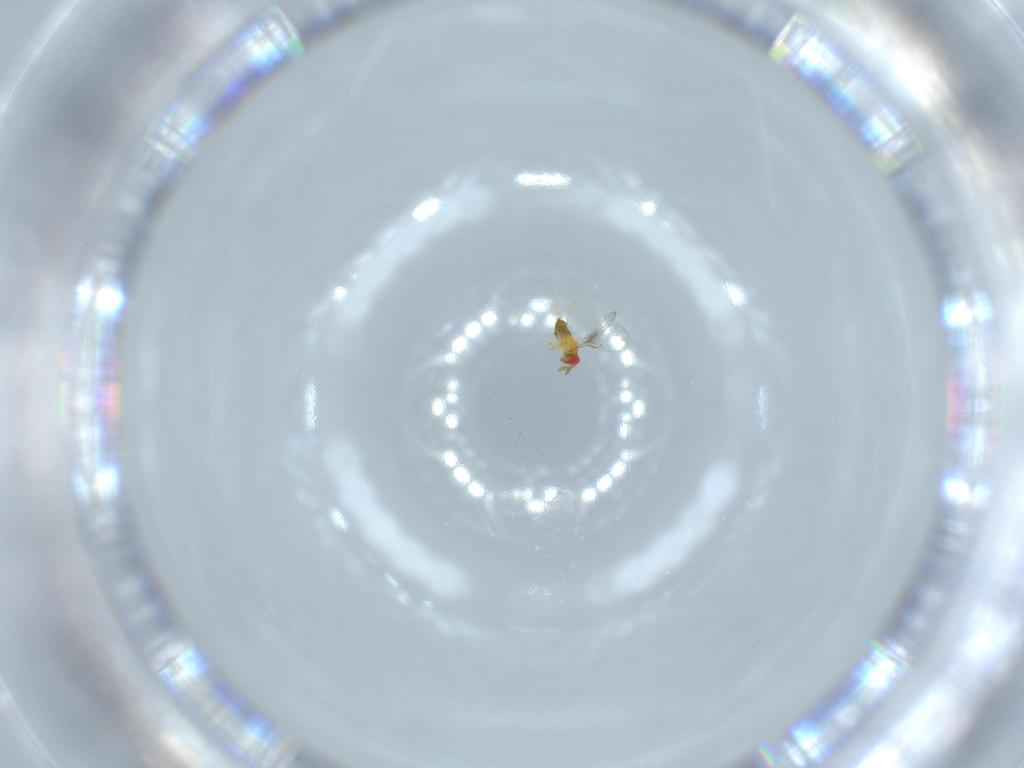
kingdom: Animalia
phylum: Arthropoda
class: Insecta
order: Hymenoptera
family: Trichogrammatidae
